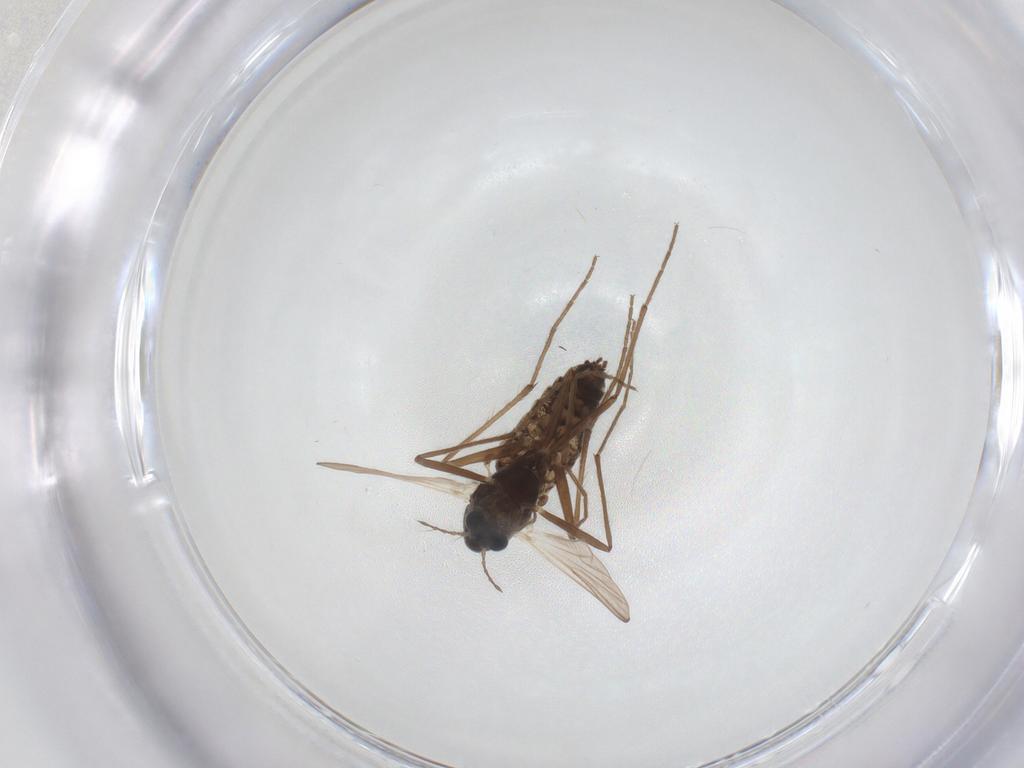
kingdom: Animalia
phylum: Arthropoda
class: Insecta
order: Diptera
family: Chironomidae
